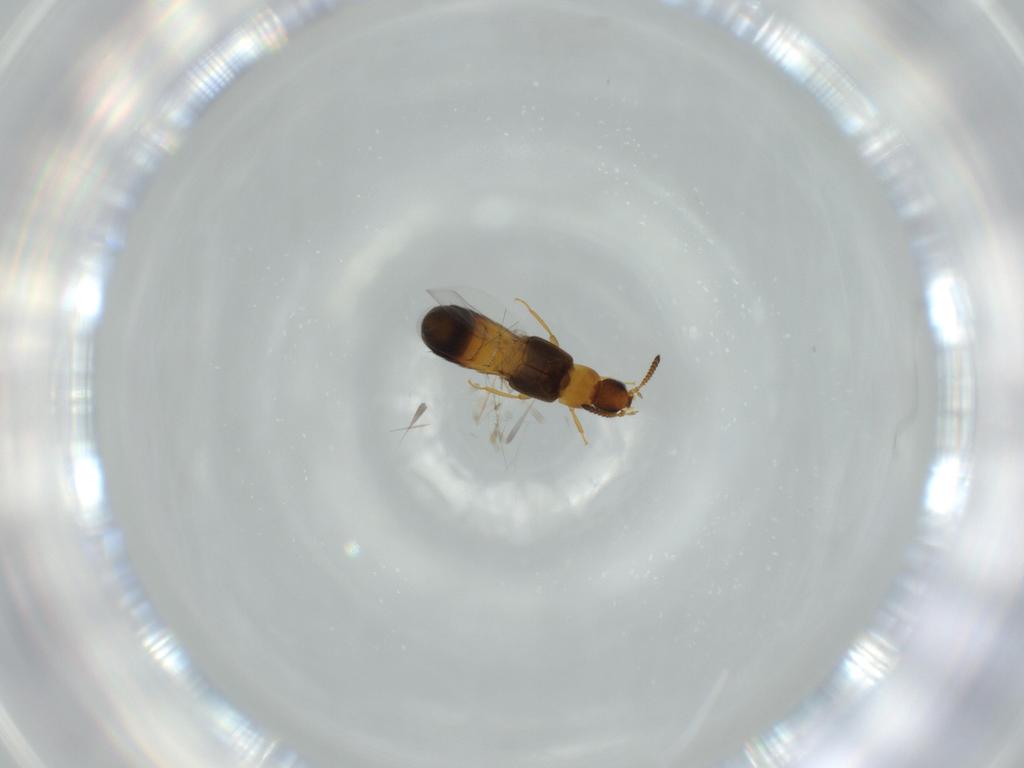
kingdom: Animalia
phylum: Arthropoda
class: Insecta
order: Coleoptera
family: Staphylinidae
